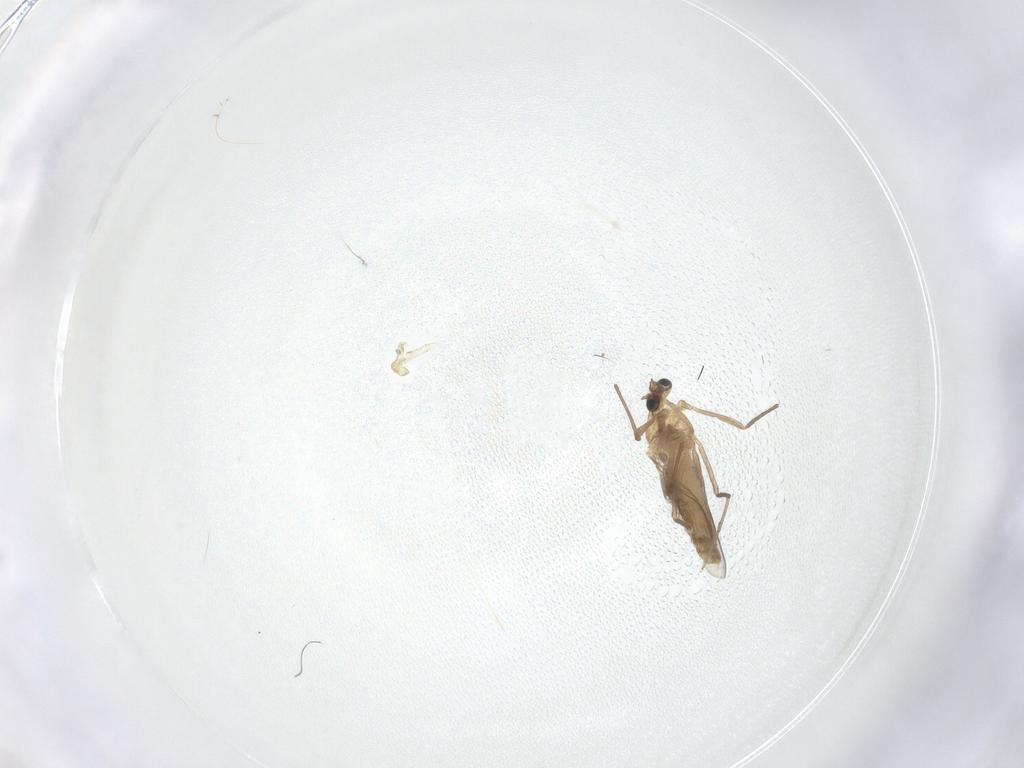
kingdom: Animalia
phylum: Arthropoda
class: Insecta
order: Diptera
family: Chironomidae
